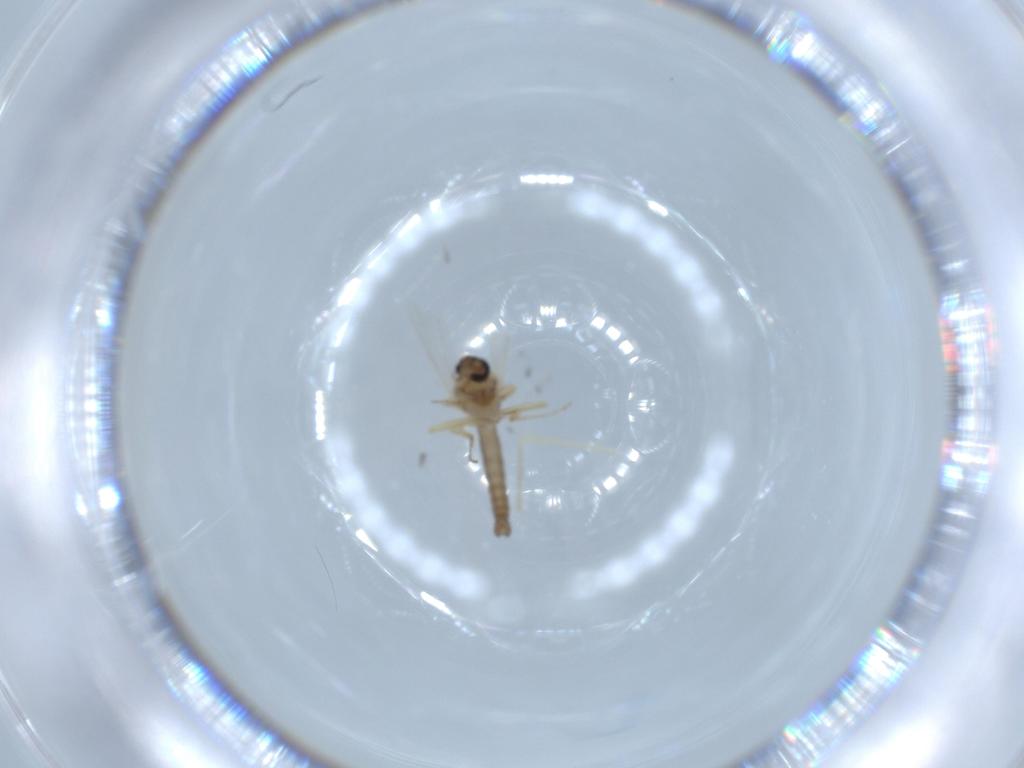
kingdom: Animalia
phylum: Arthropoda
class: Insecta
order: Diptera
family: Ceratopogonidae
